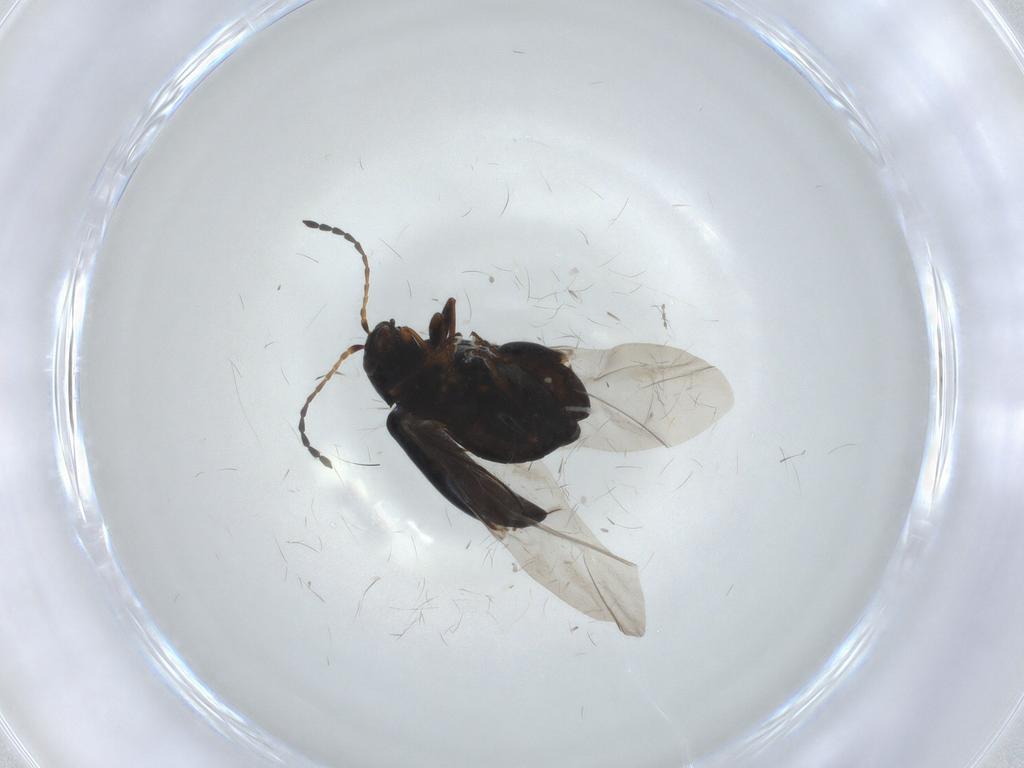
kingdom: Animalia
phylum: Arthropoda
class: Insecta
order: Coleoptera
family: Chrysomelidae
